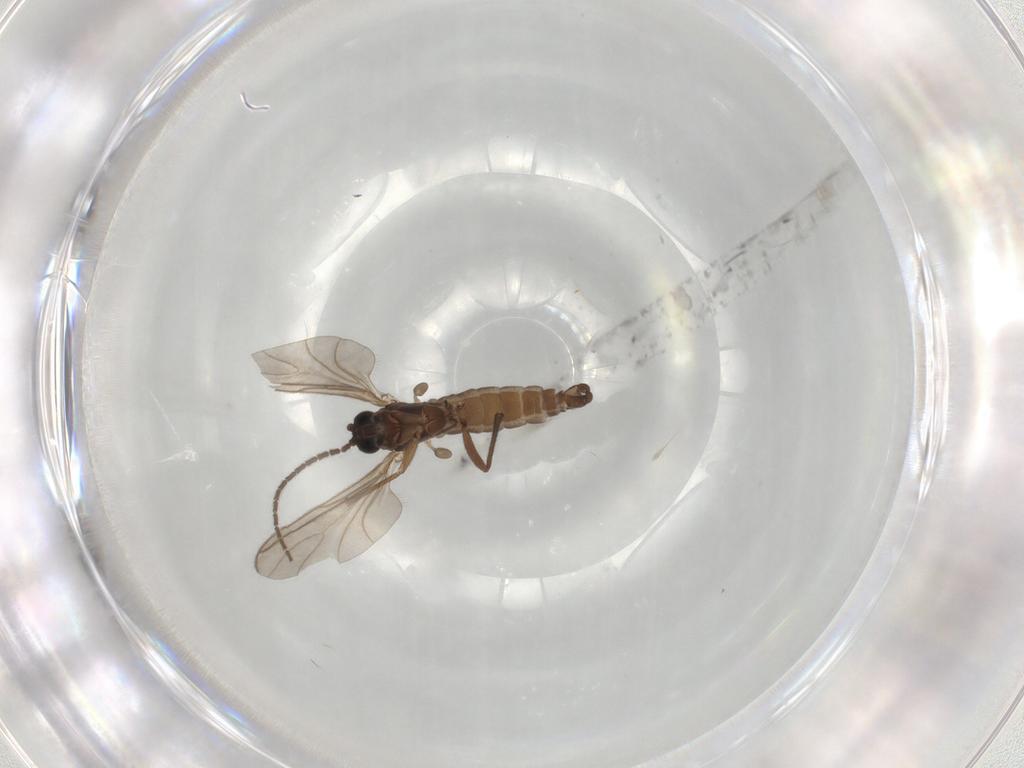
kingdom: Animalia
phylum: Arthropoda
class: Insecta
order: Diptera
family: Sciaridae
